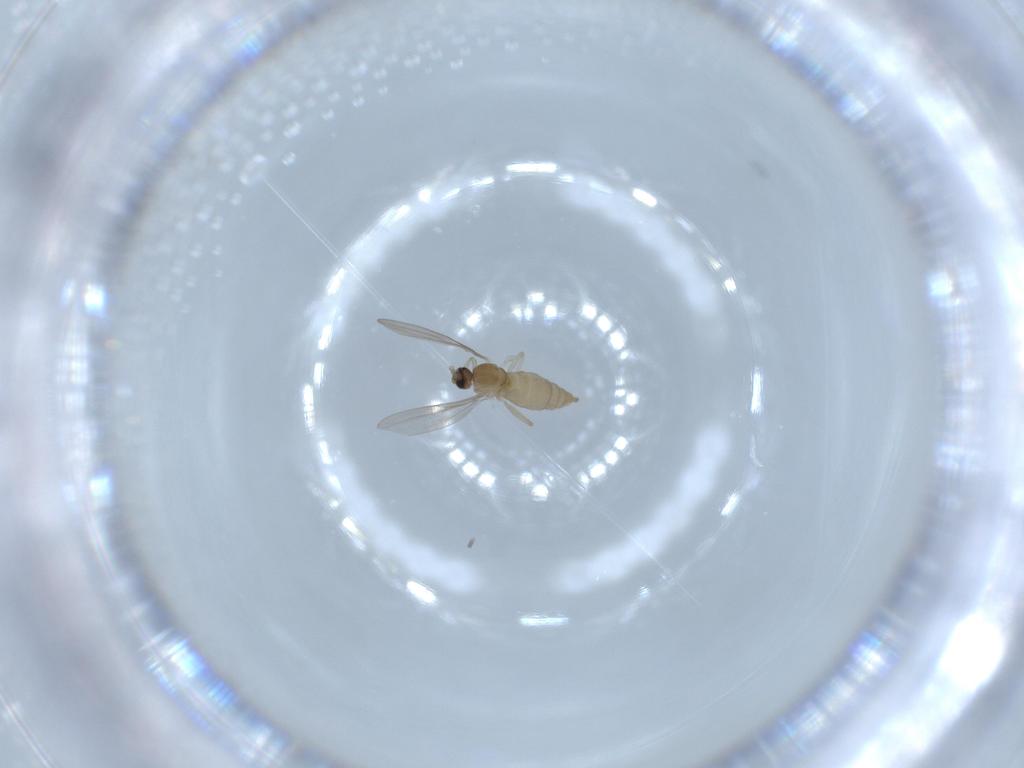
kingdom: Animalia
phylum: Arthropoda
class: Insecta
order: Diptera
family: Cecidomyiidae
